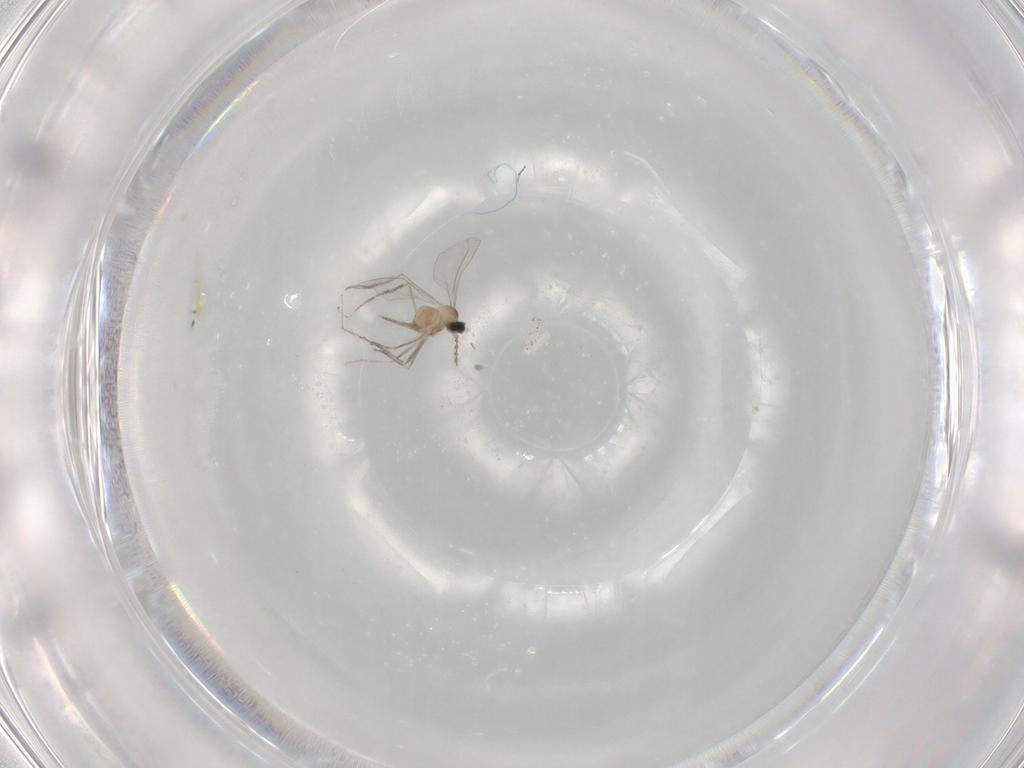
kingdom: Animalia
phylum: Arthropoda
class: Insecta
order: Diptera
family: Cecidomyiidae
